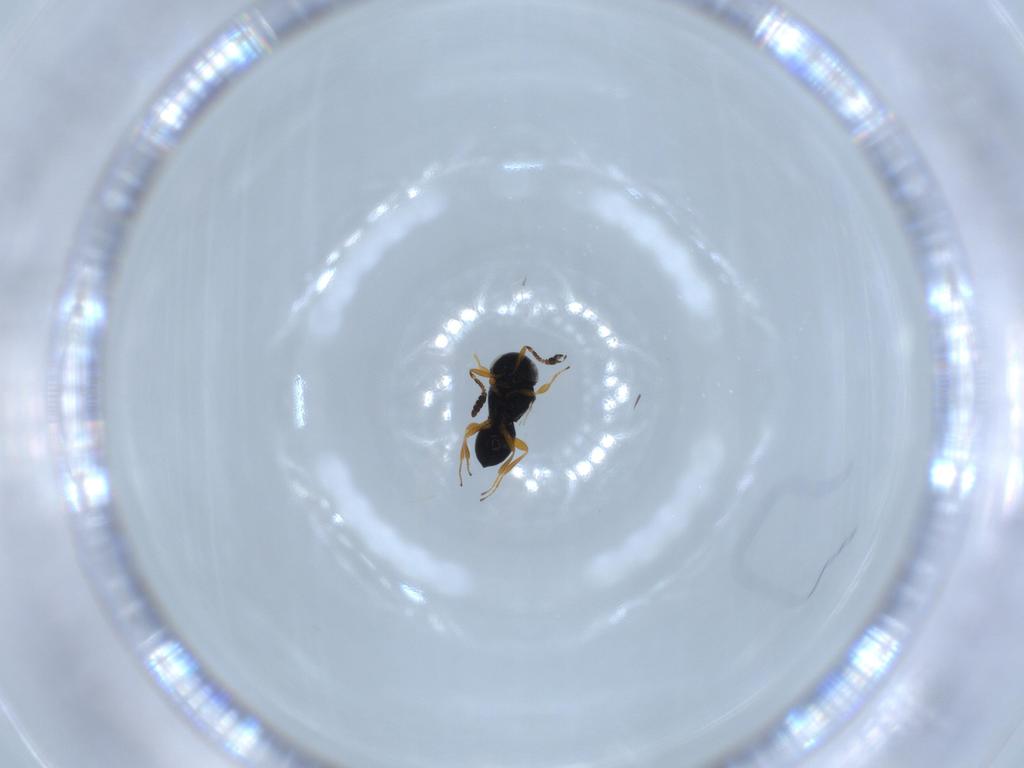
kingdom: Animalia
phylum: Arthropoda
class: Insecta
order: Hymenoptera
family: Scelionidae
